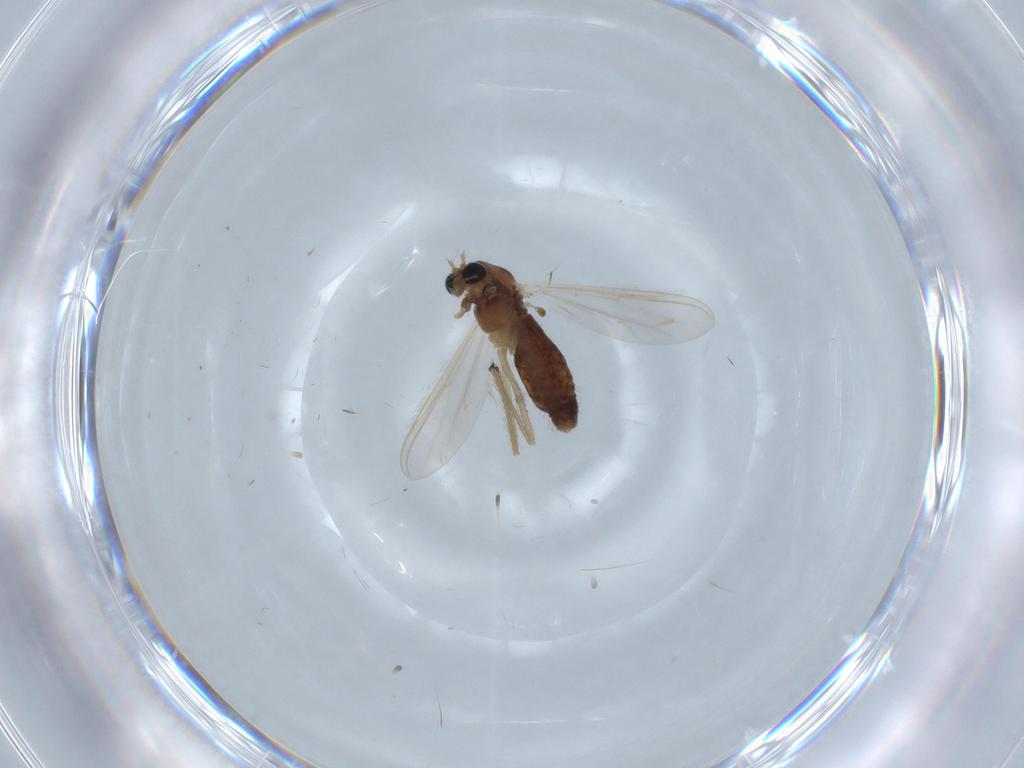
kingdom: Animalia
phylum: Arthropoda
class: Insecta
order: Diptera
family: Chironomidae
